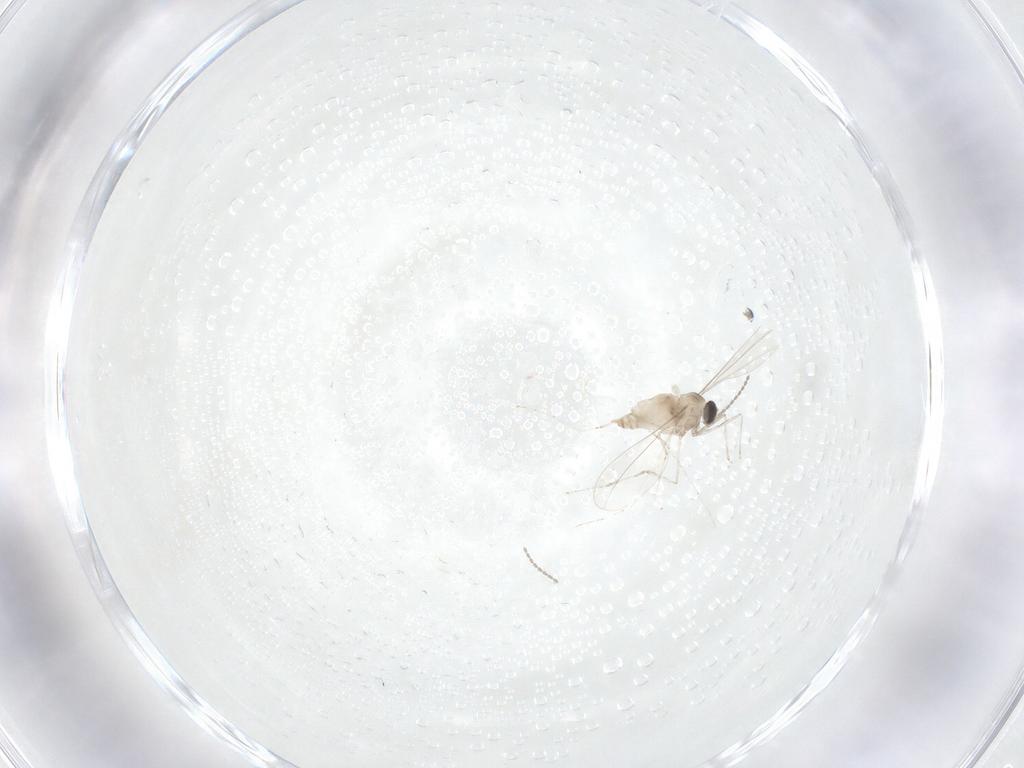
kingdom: Animalia
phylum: Arthropoda
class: Insecta
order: Diptera
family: Cecidomyiidae
